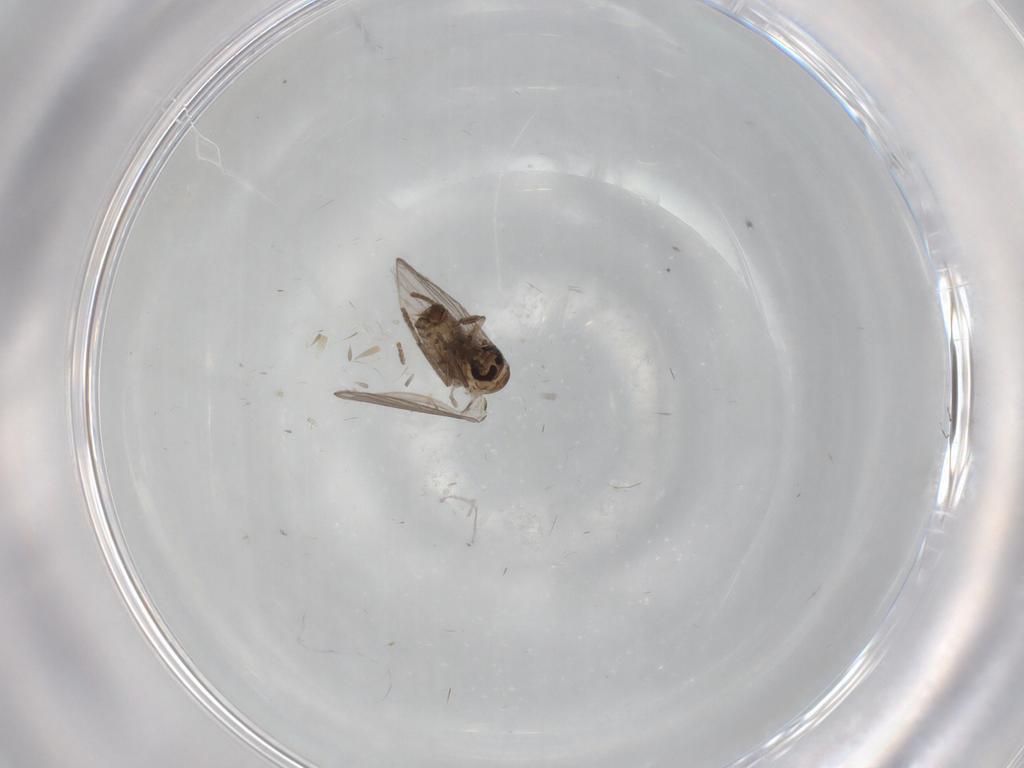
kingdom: Animalia
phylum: Arthropoda
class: Insecta
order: Diptera
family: Psychodidae
